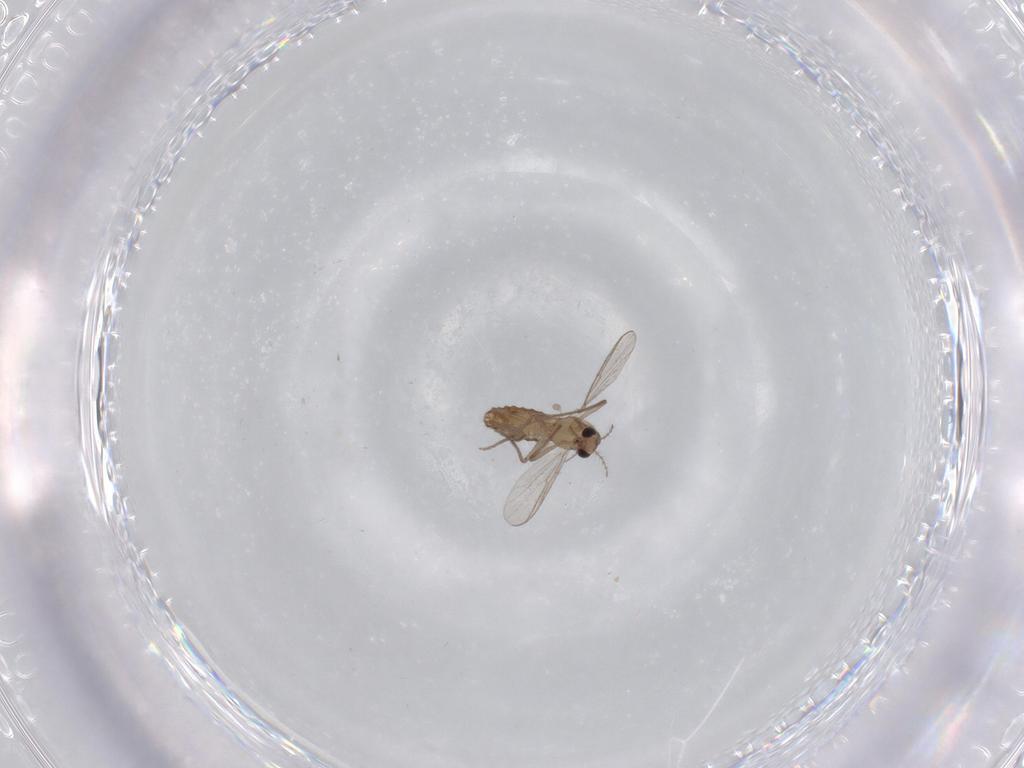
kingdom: Animalia
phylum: Arthropoda
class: Insecta
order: Diptera
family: Chironomidae
